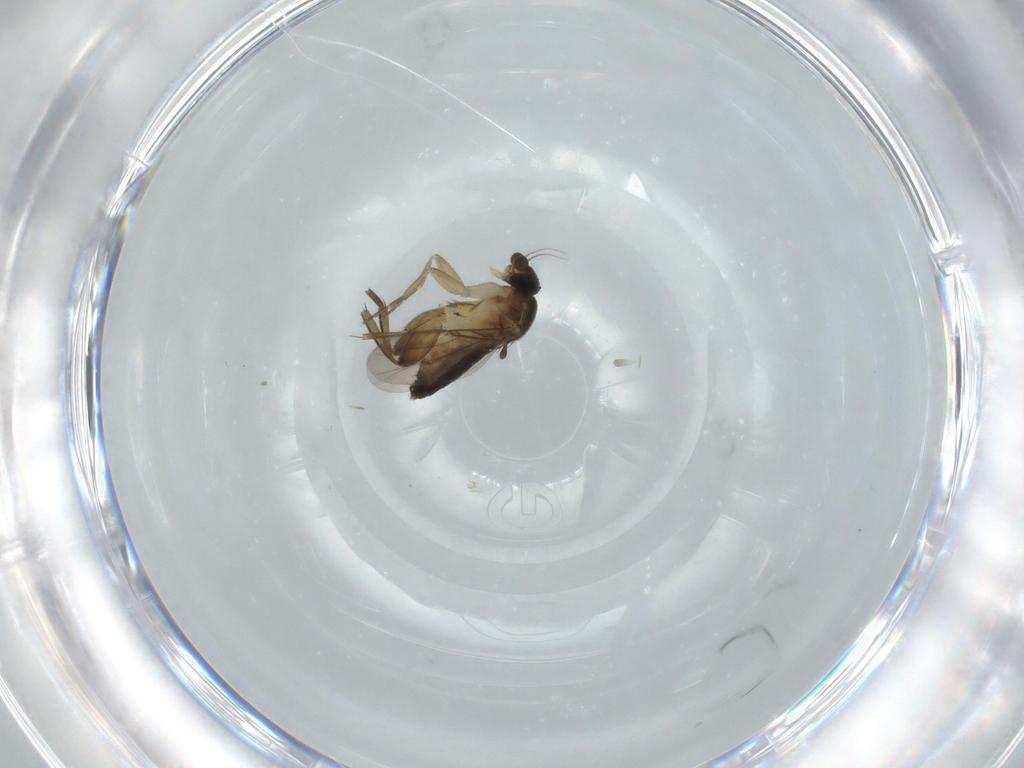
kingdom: Animalia
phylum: Arthropoda
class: Insecta
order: Diptera
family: Phoridae
